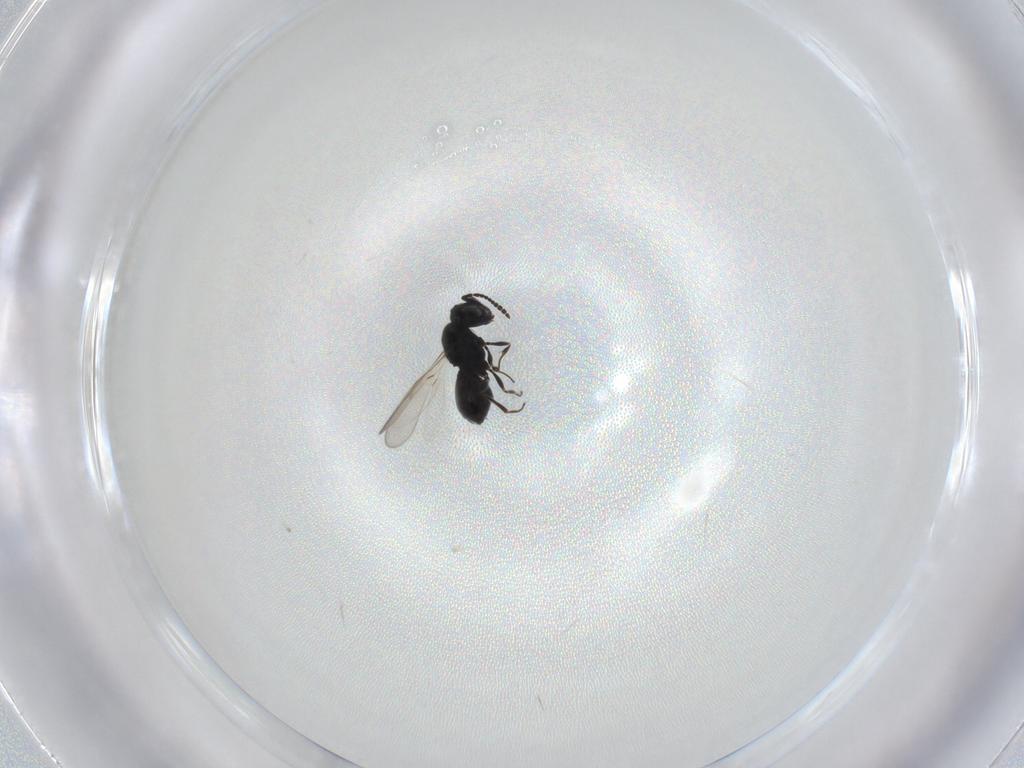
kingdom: Animalia
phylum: Arthropoda
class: Insecta
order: Hymenoptera
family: Scelionidae
